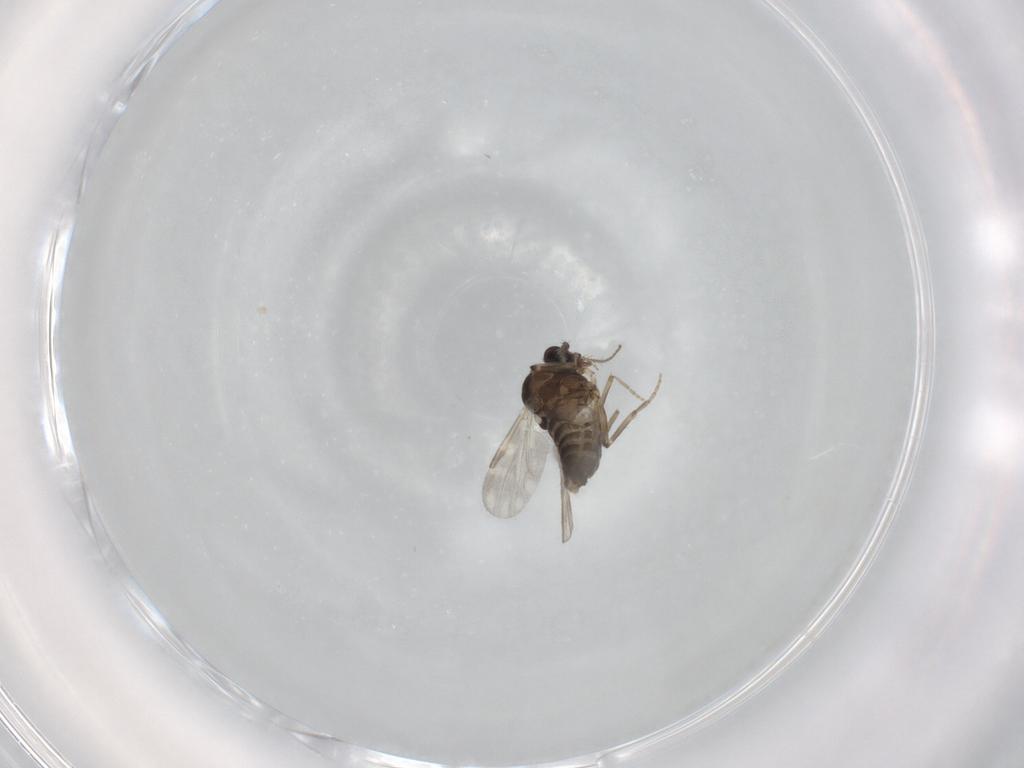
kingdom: Animalia
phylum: Arthropoda
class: Insecta
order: Diptera
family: Ceratopogonidae
